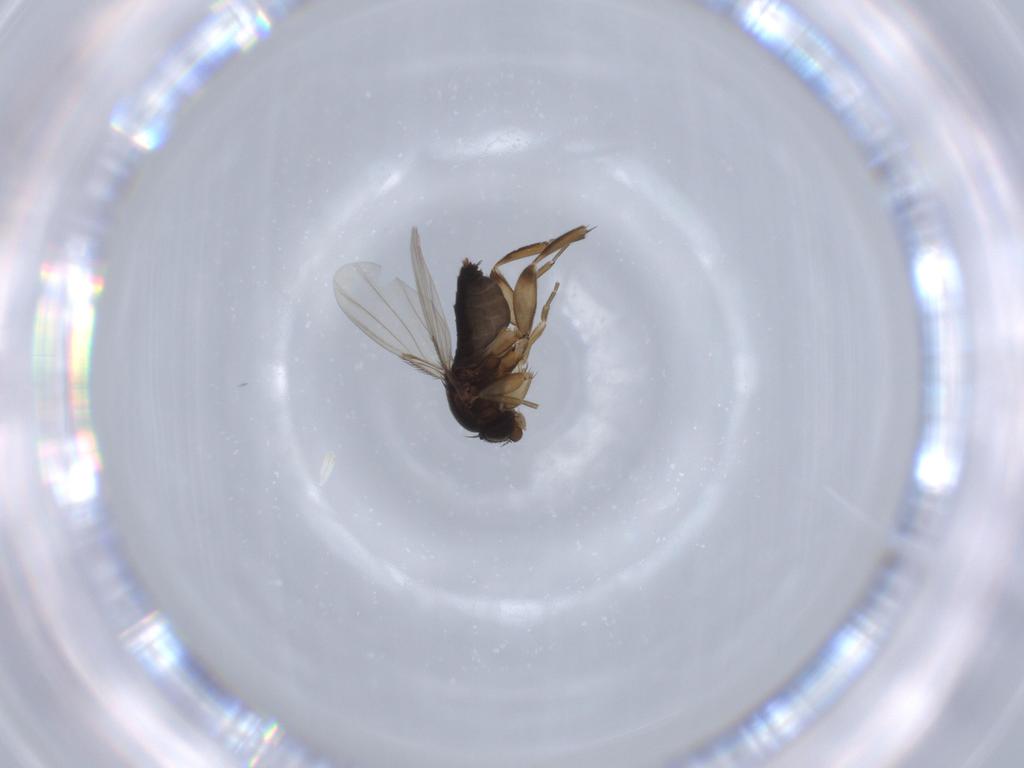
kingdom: Animalia
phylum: Arthropoda
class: Insecta
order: Diptera
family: Phoridae
